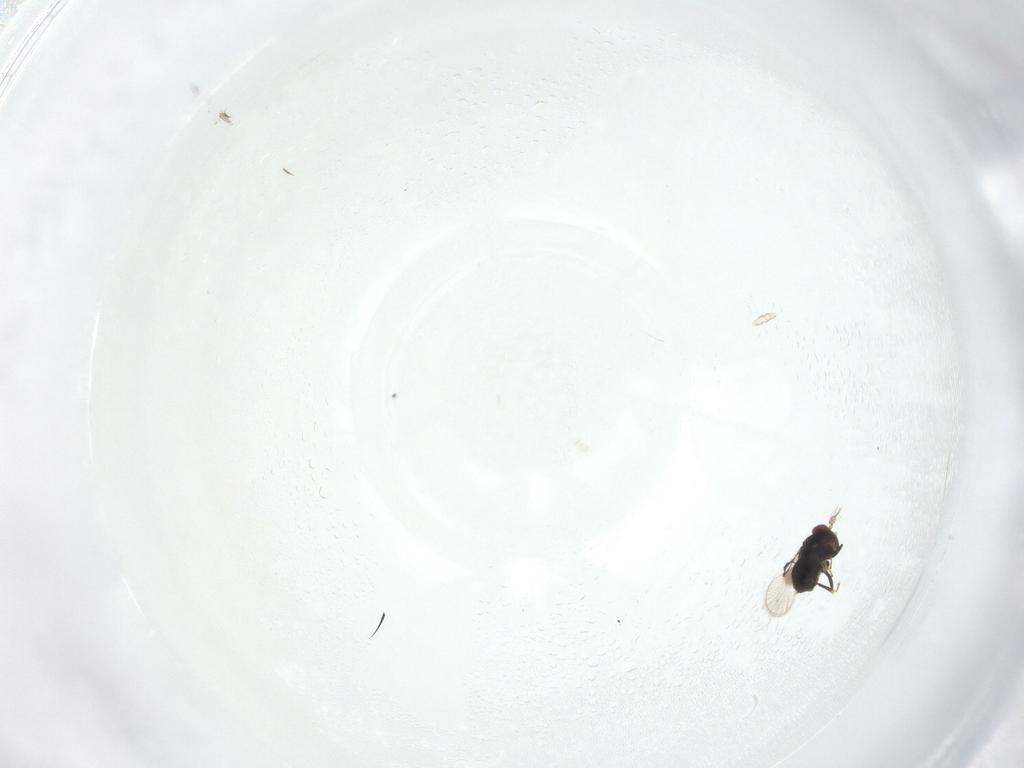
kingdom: Animalia
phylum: Arthropoda
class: Insecta
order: Hymenoptera
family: Trichogrammatidae
